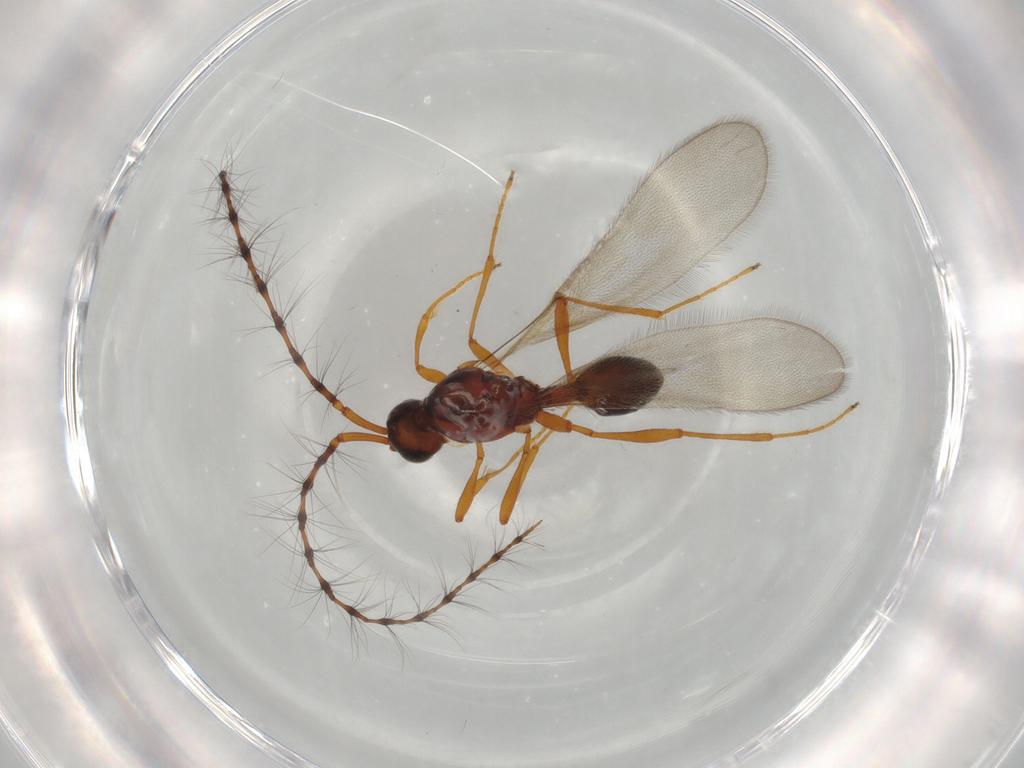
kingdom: Animalia
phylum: Arthropoda
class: Insecta
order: Hymenoptera
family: Diapriidae
